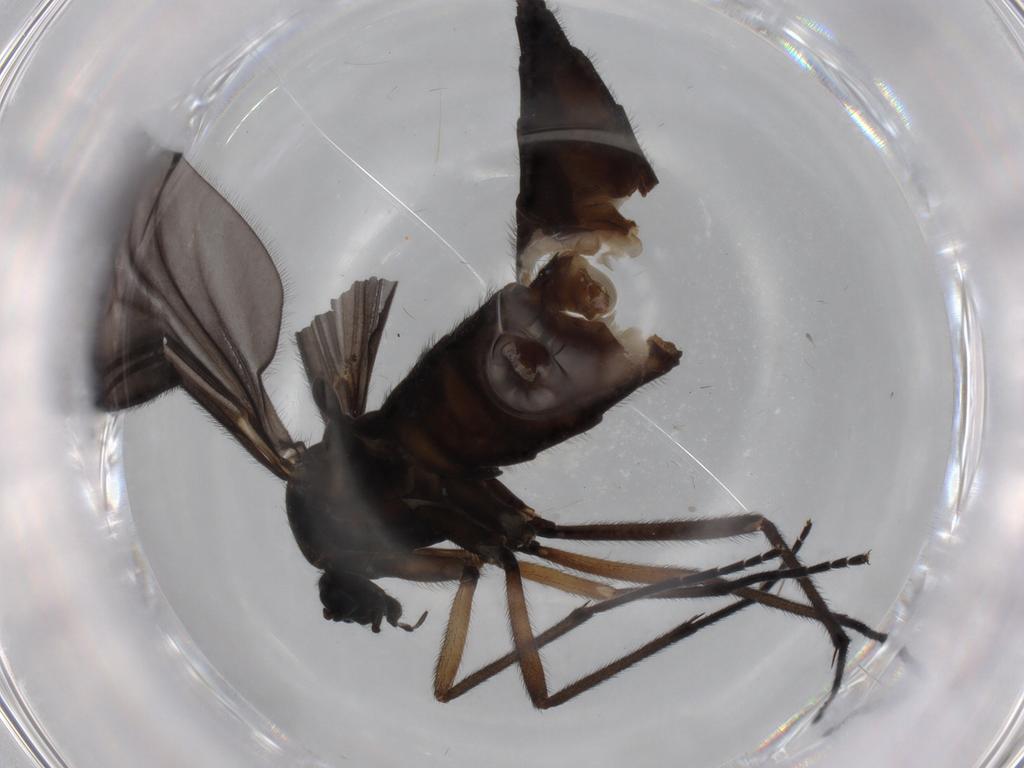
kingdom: Animalia
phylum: Arthropoda
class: Insecta
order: Diptera
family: Sciaridae
